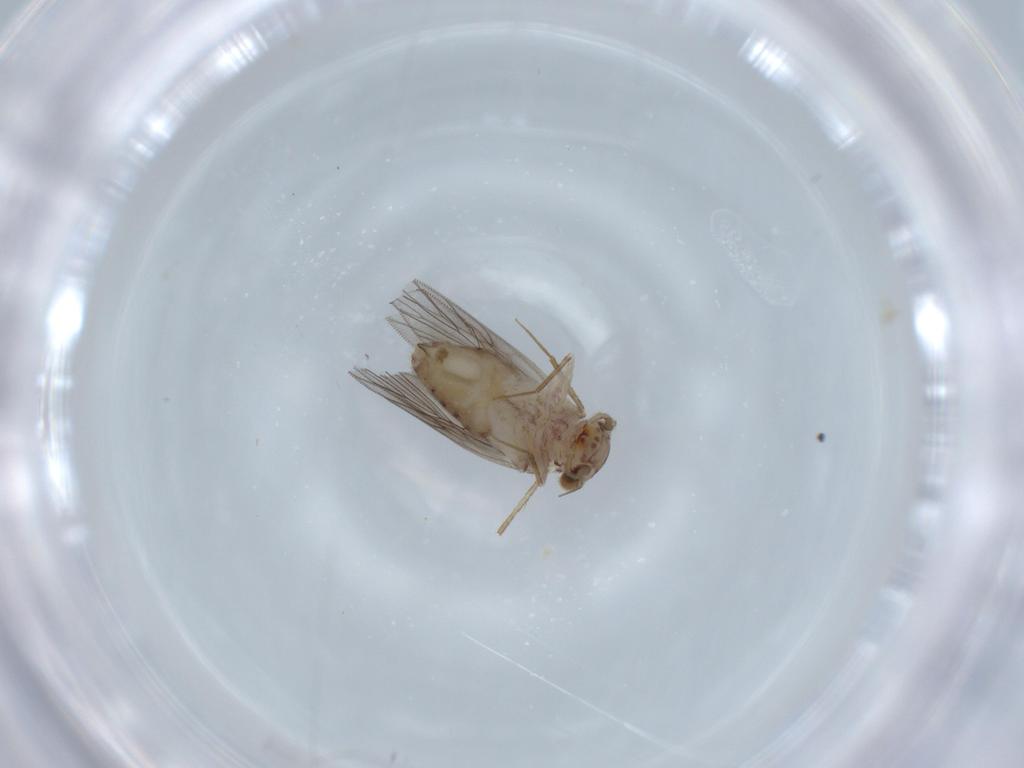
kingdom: Animalia
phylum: Arthropoda
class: Insecta
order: Psocodea
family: Lepidopsocidae
